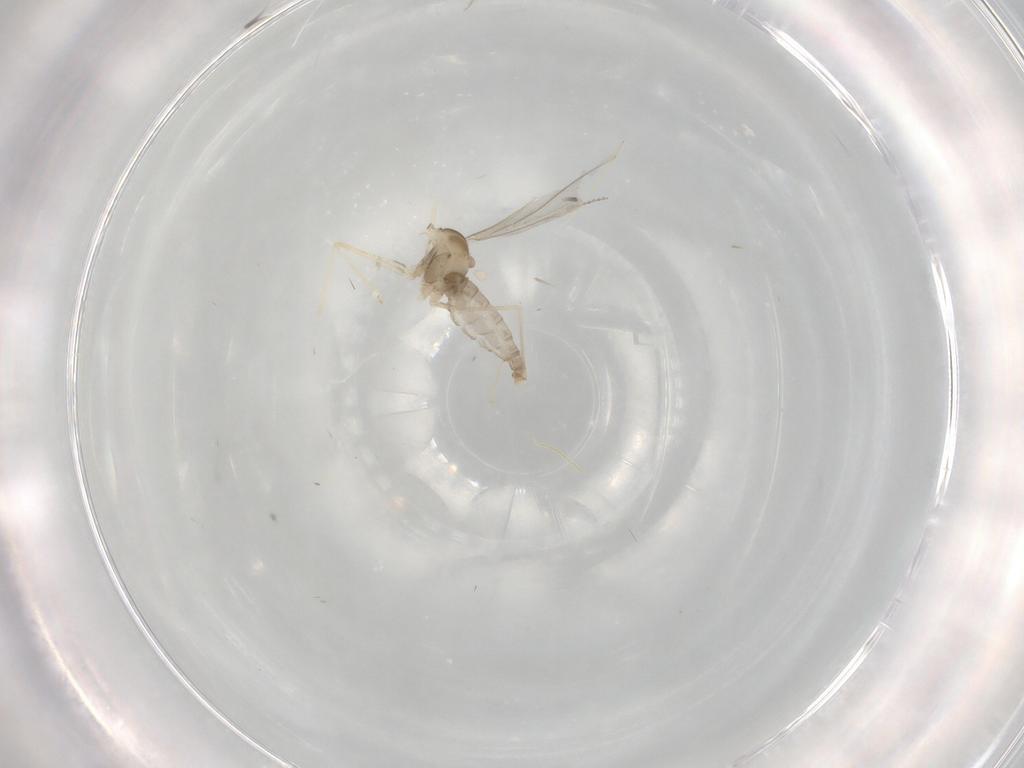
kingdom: Animalia
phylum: Arthropoda
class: Insecta
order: Diptera
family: Cecidomyiidae
